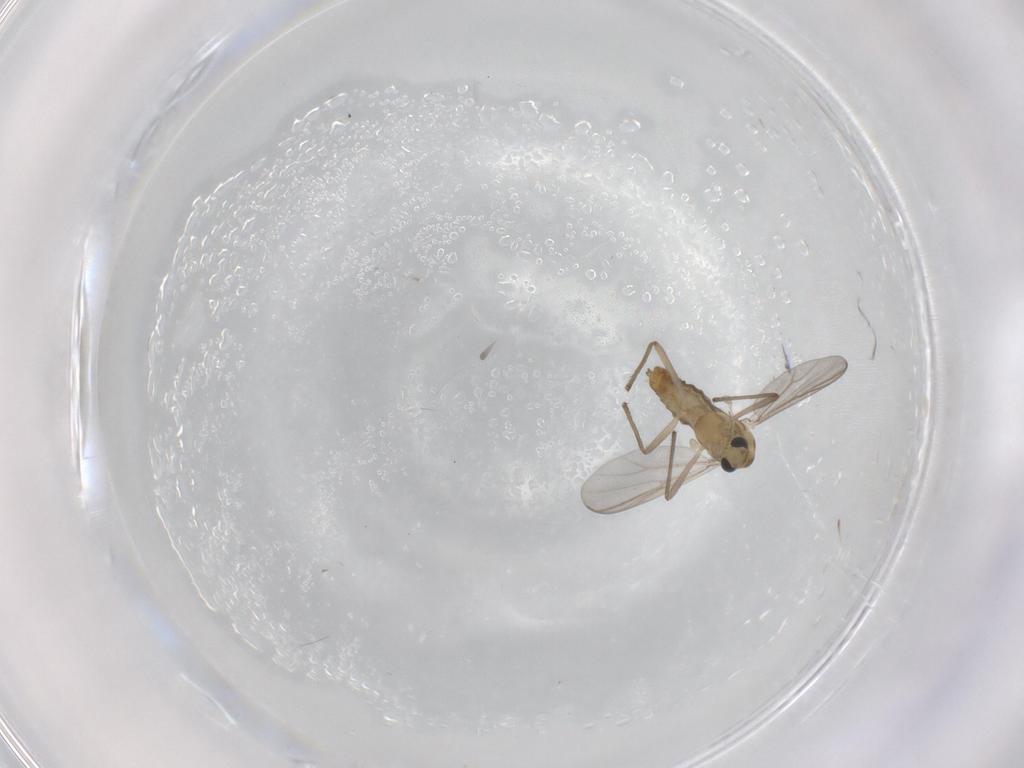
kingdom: Animalia
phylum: Arthropoda
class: Insecta
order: Diptera
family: Chironomidae
